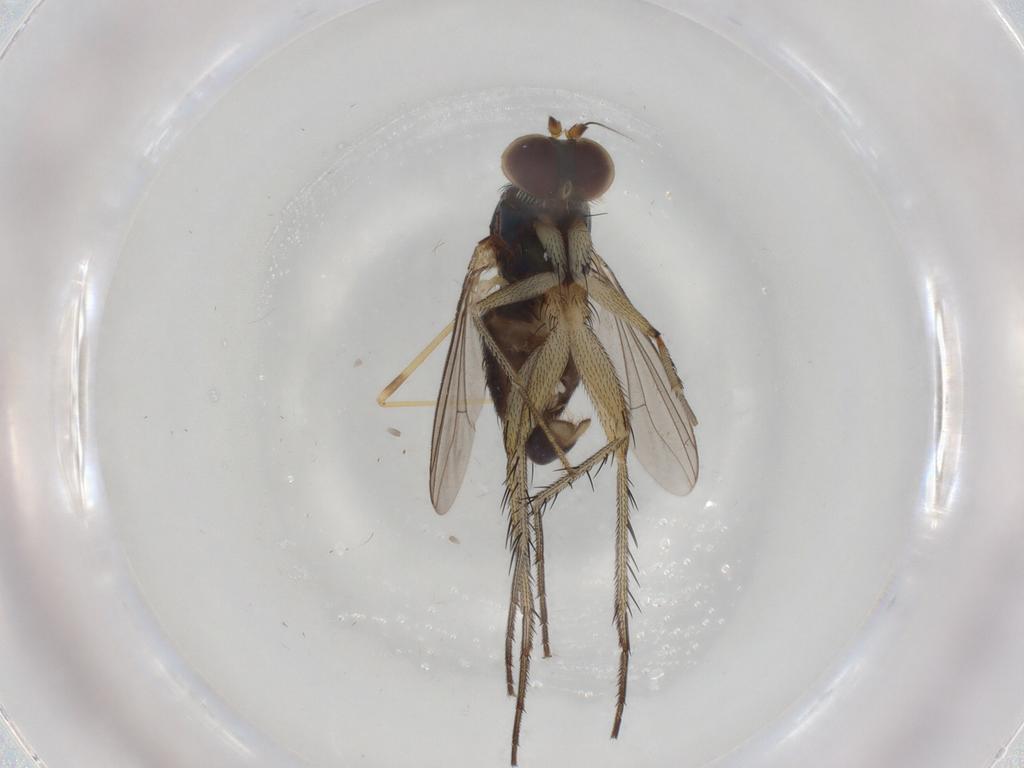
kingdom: Animalia
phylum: Arthropoda
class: Insecta
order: Diptera
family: Dolichopodidae
